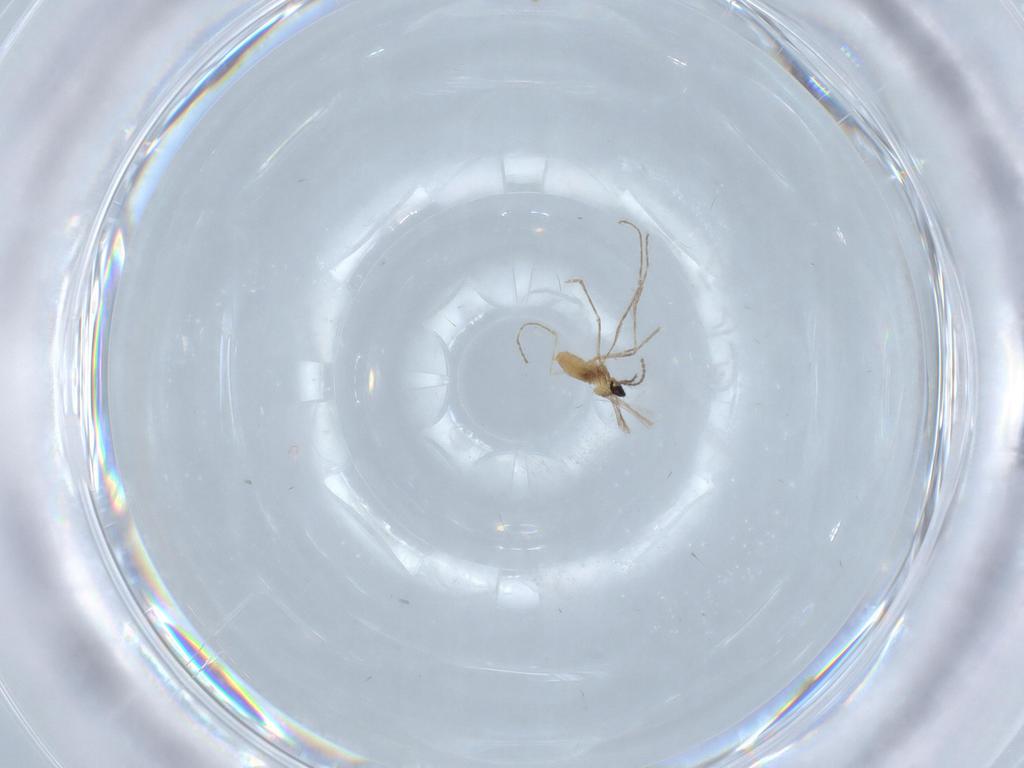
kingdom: Animalia
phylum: Arthropoda
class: Insecta
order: Diptera
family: Cecidomyiidae
